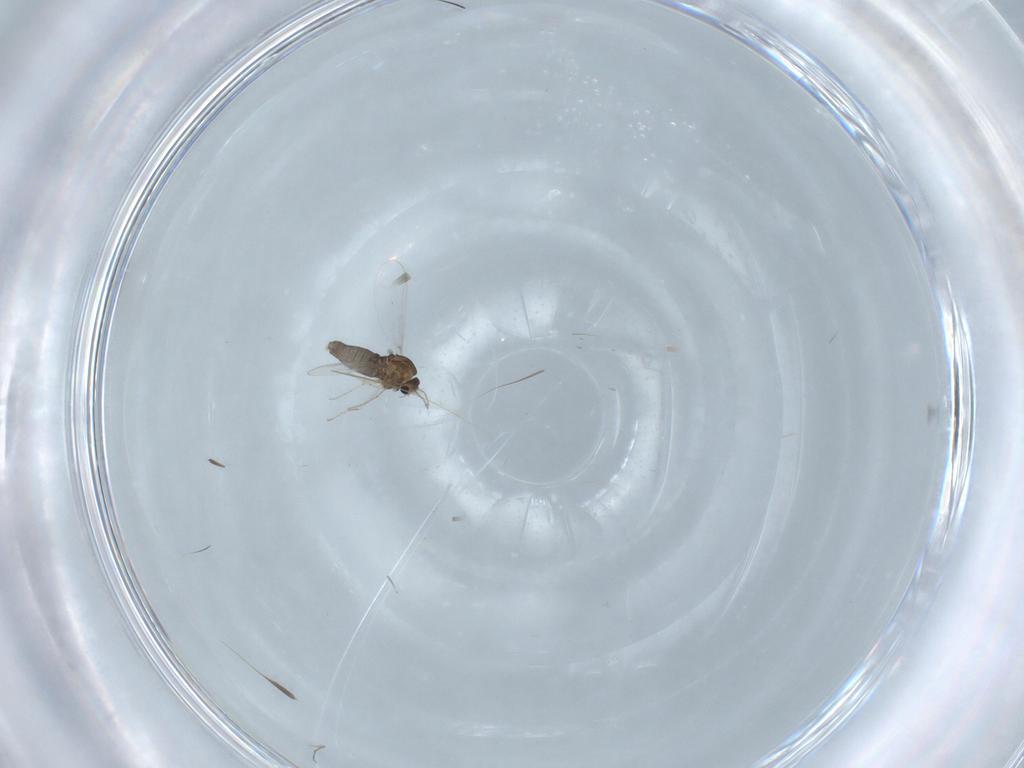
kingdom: Animalia
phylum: Arthropoda
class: Insecta
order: Diptera
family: Chironomidae
